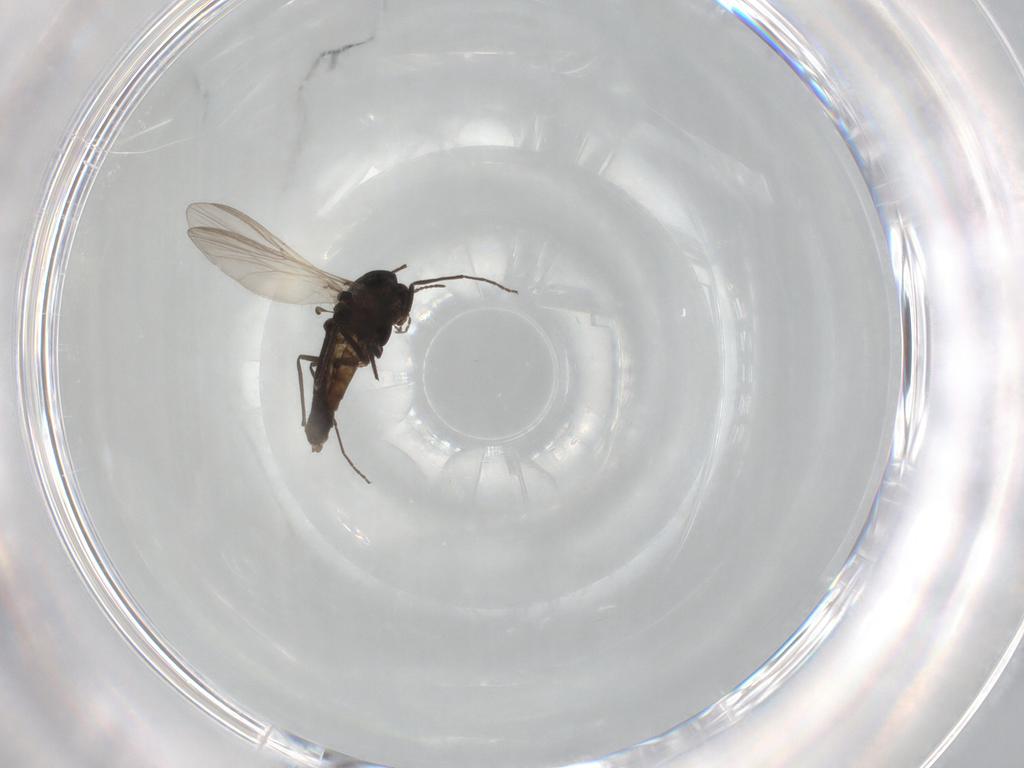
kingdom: Animalia
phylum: Arthropoda
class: Insecta
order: Diptera
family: Chironomidae
